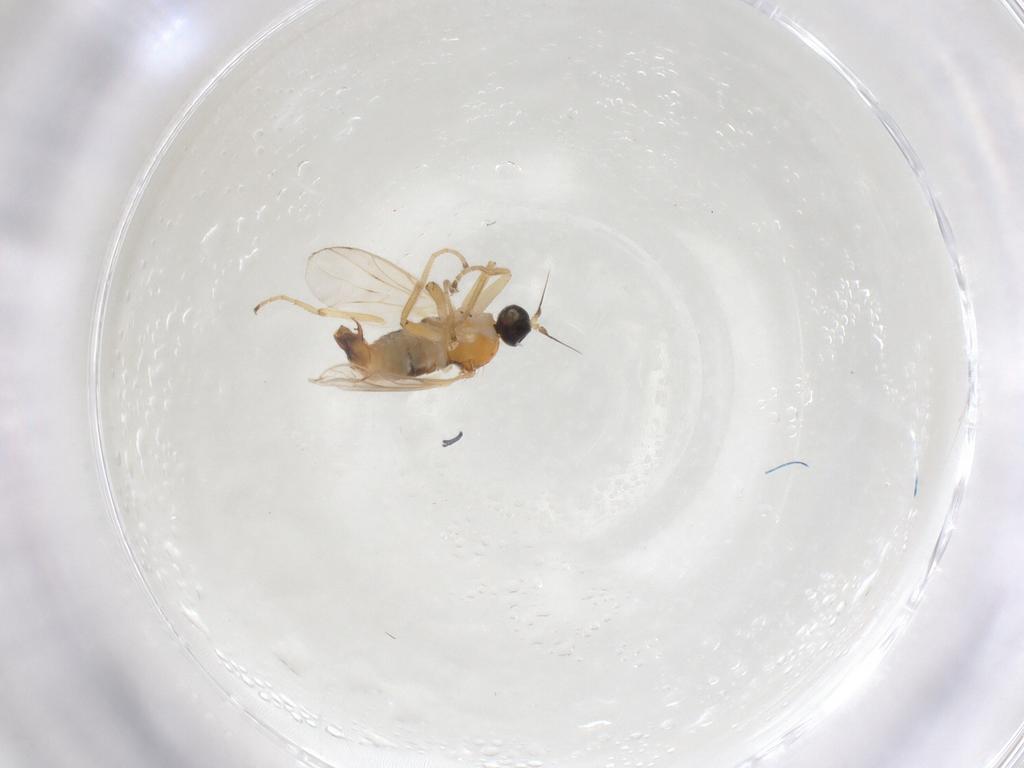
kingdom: Animalia
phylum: Arthropoda
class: Insecta
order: Diptera
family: Hybotidae
